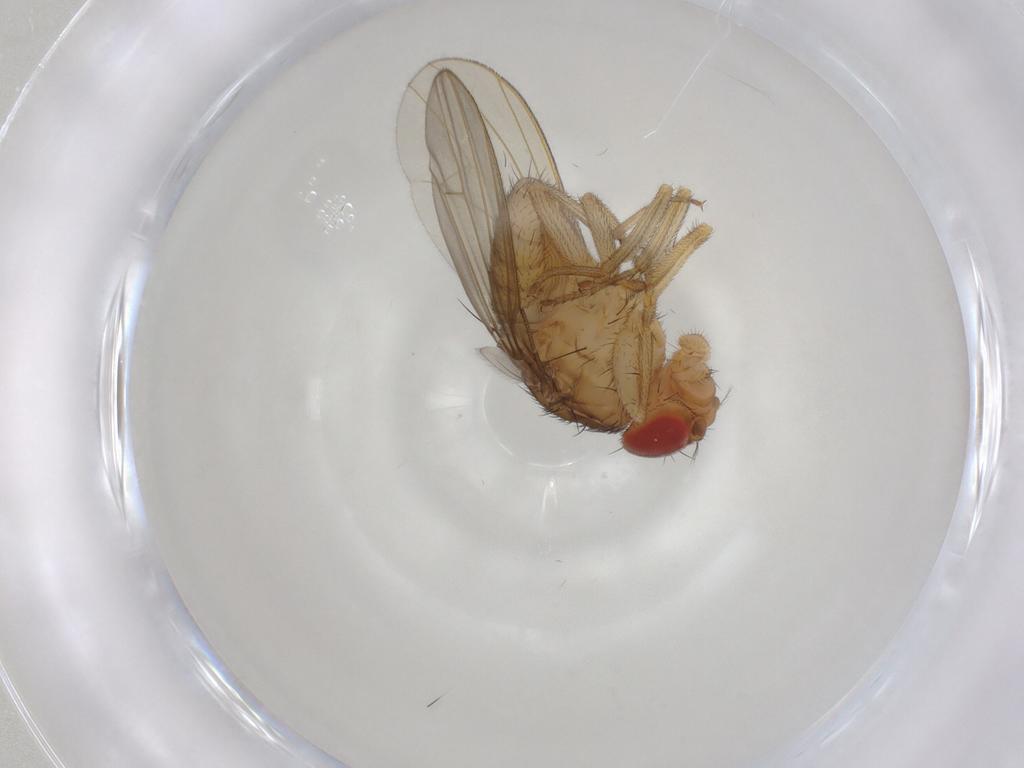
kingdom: Animalia
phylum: Arthropoda
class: Insecta
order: Diptera
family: Drosophilidae
